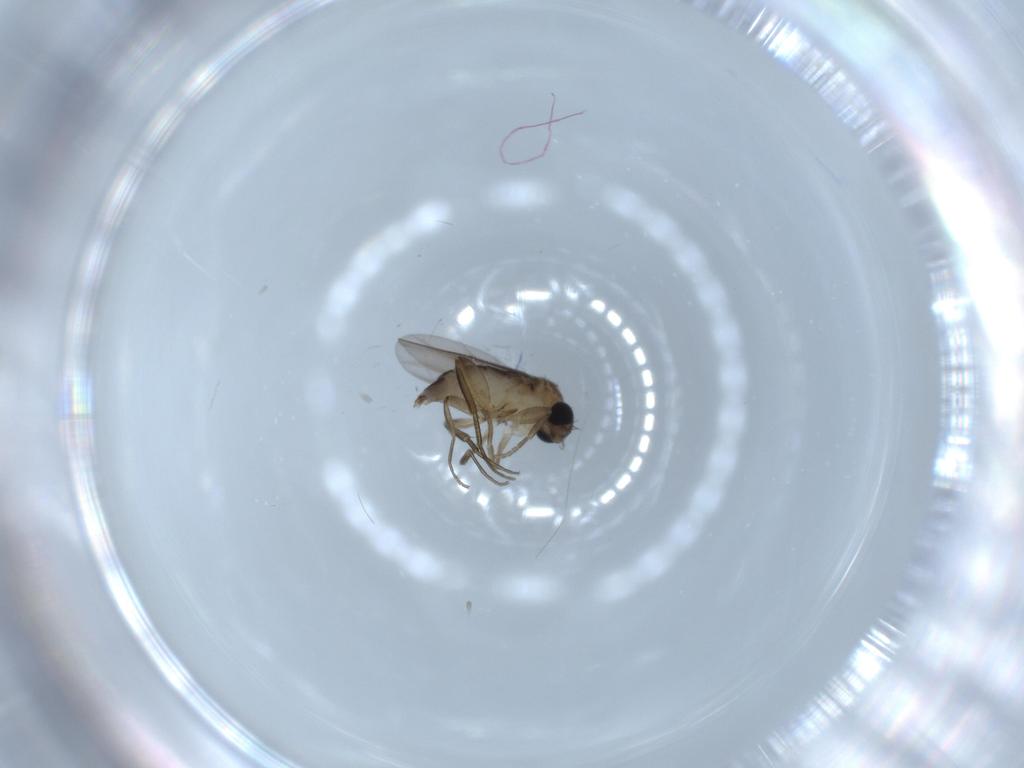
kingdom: Animalia
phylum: Arthropoda
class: Insecta
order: Diptera
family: Phoridae
